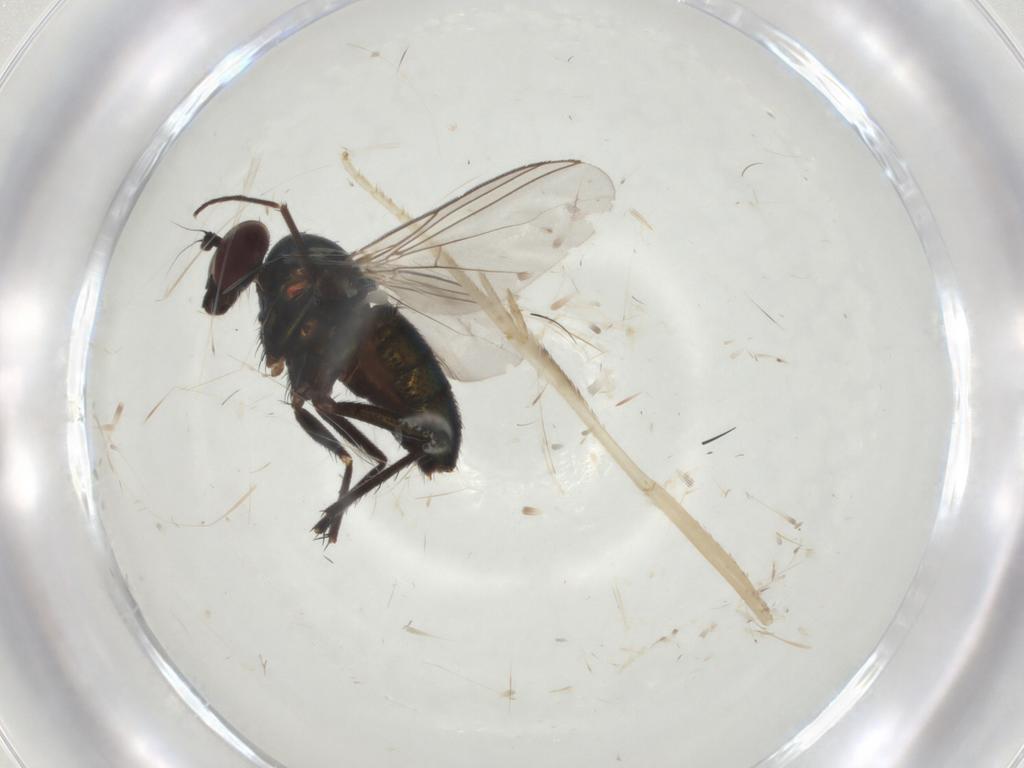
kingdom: Animalia
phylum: Arthropoda
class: Insecta
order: Diptera
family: Dolichopodidae
